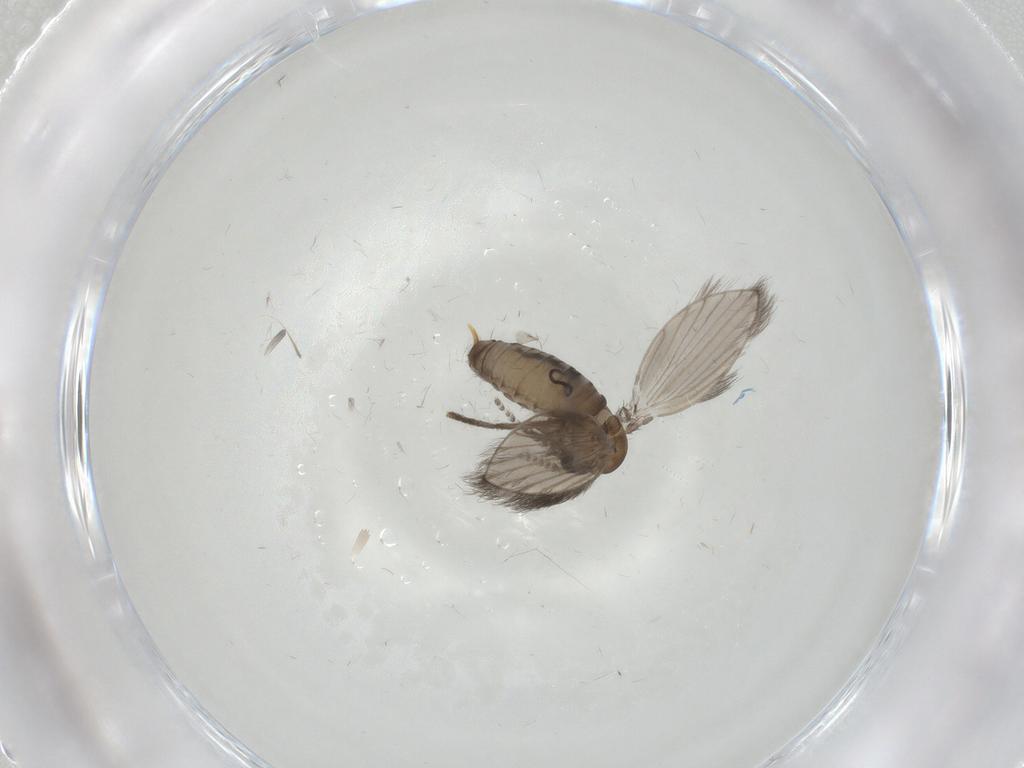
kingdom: Animalia
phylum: Arthropoda
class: Insecta
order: Diptera
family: Psychodidae
